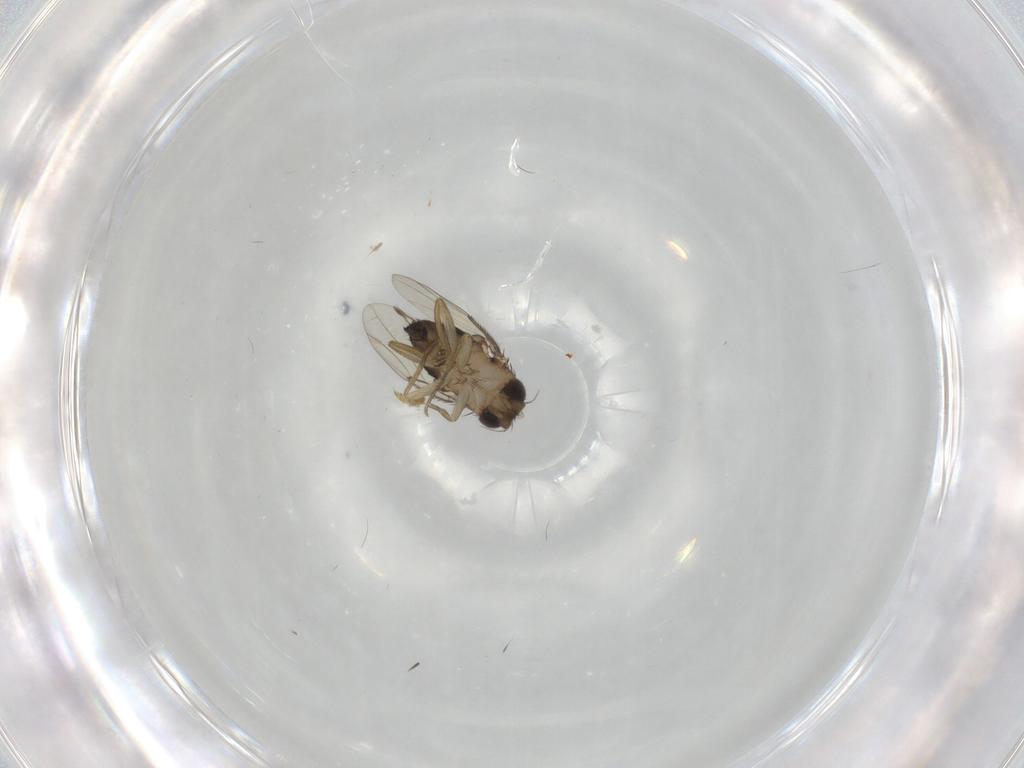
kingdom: Animalia
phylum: Arthropoda
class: Insecta
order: Diptera
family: Phoridae
